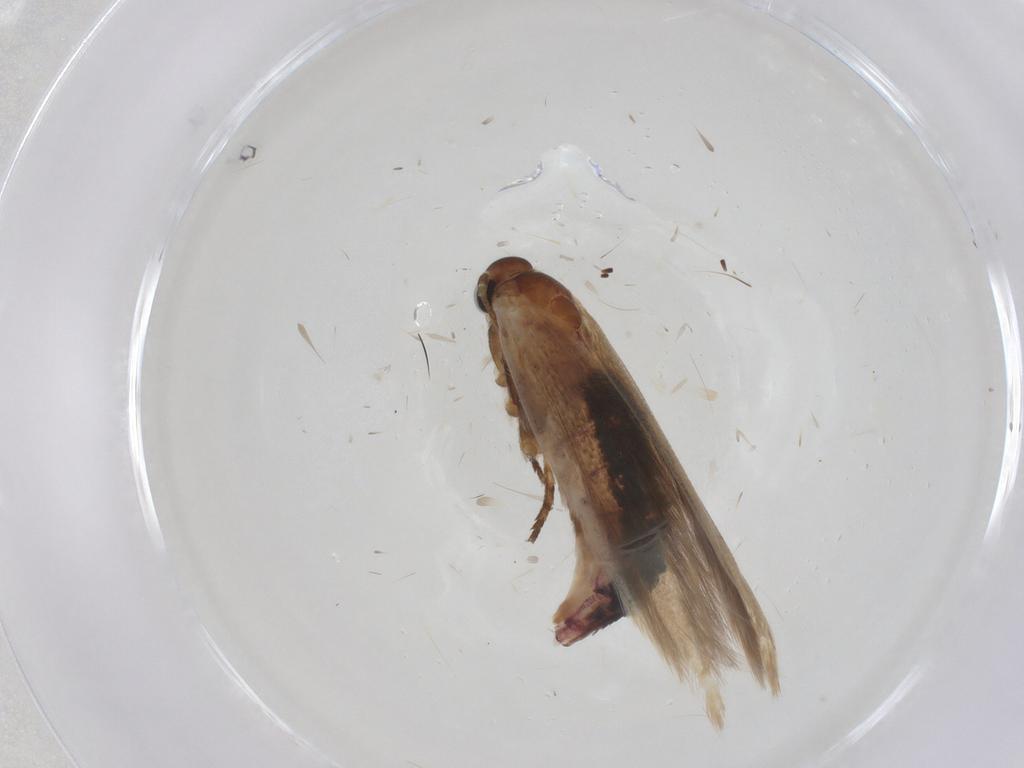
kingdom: Animalia
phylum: Arthropoda
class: Insecta
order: Lepidoptera
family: Cosmopterigidae
